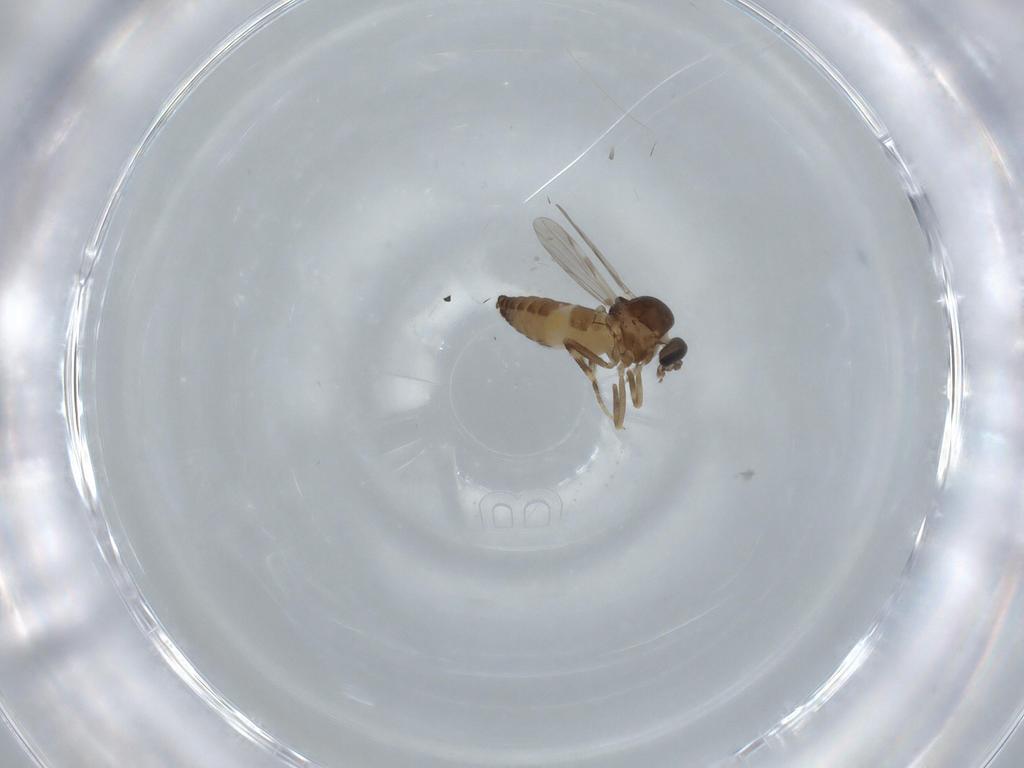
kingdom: Animalia
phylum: Arthropoda
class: Insecta
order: Diptera
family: Ceratopogonidae
